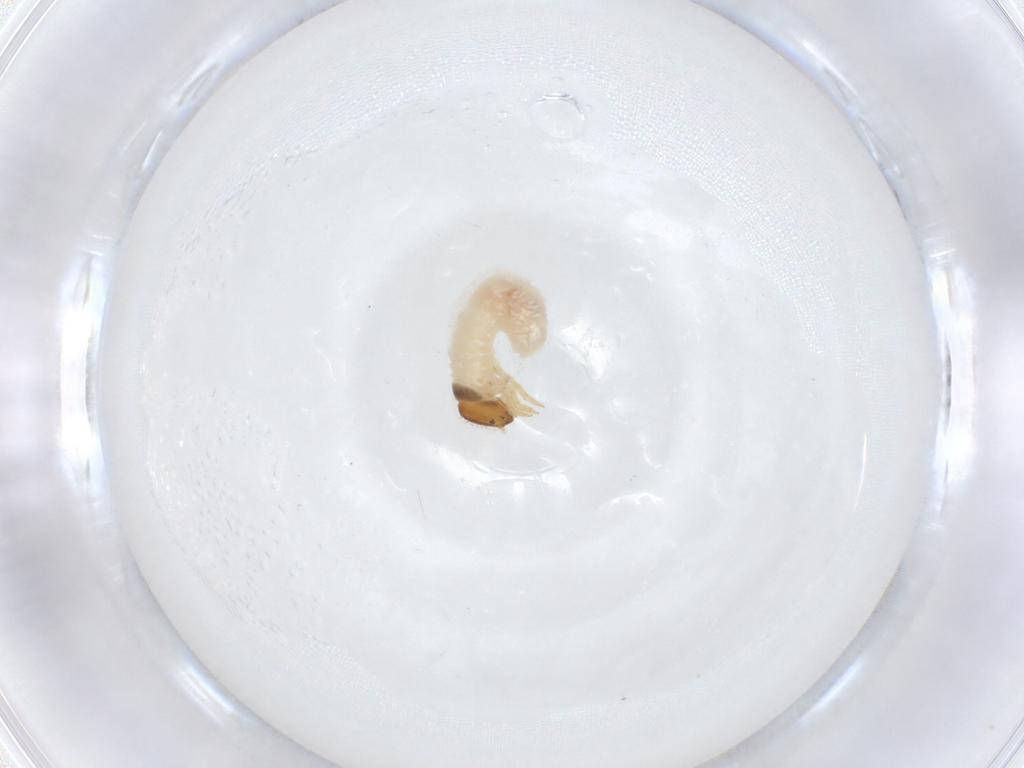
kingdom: Animalia
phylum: Arthropoda
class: Insecta
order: Coleoptera
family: Chrysomelidae
